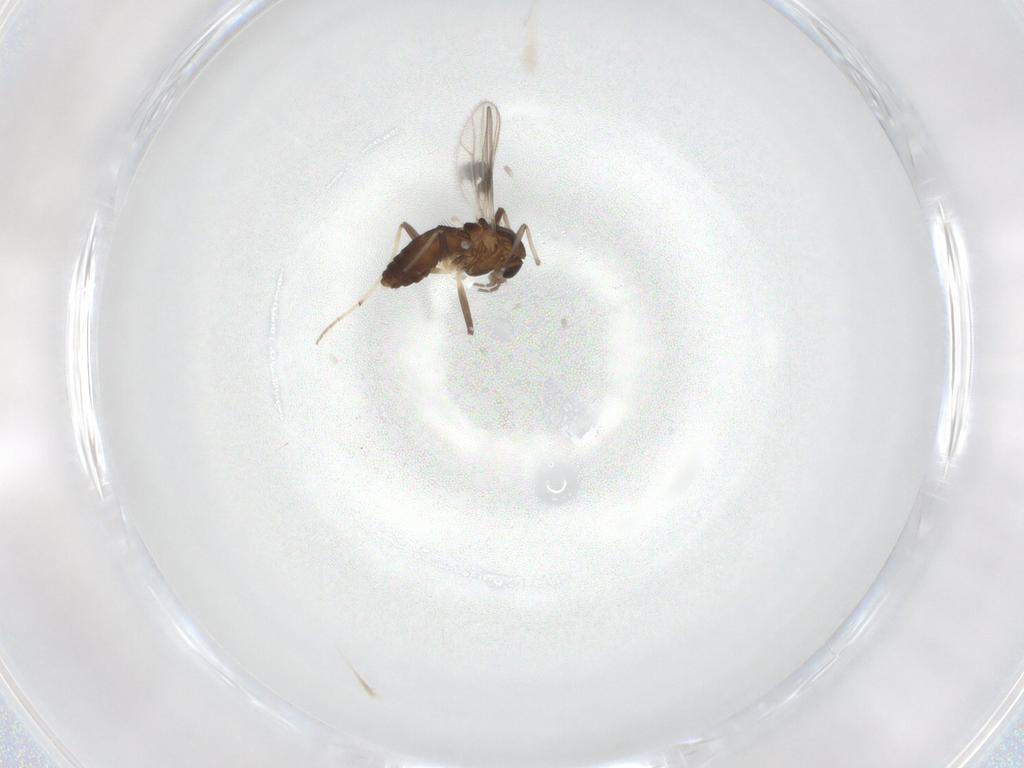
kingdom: Animalia
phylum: Arthropoda
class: Insecta
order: Diptera
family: Chironomidae
